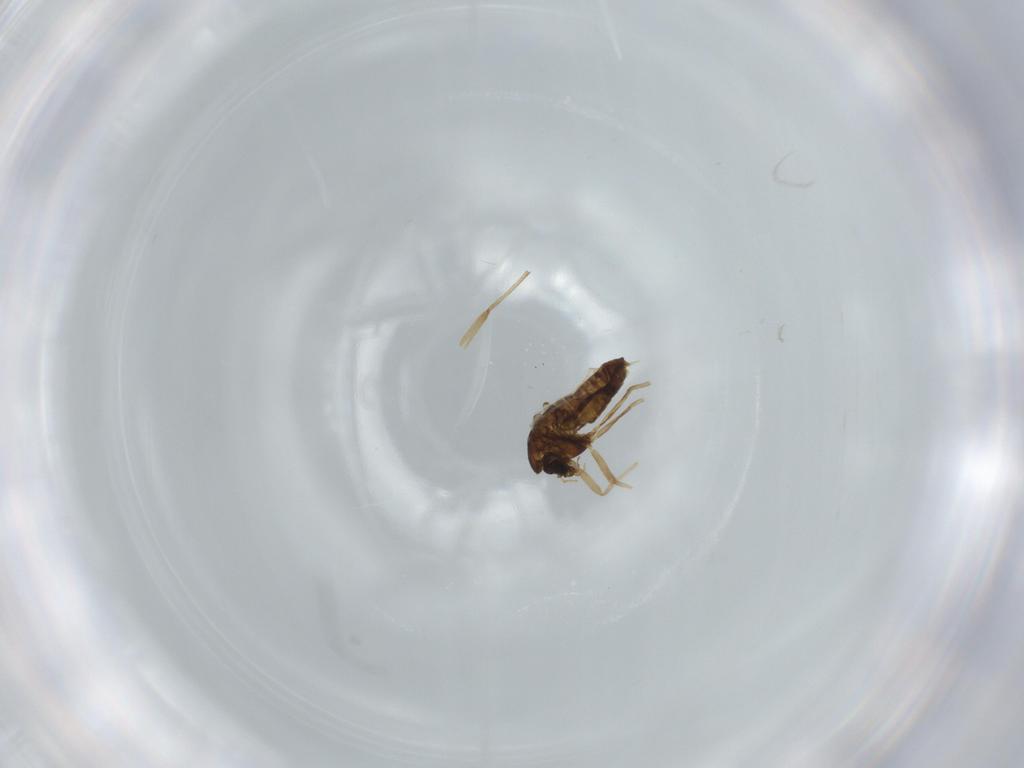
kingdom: Animalia
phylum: Arthropoda
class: Insecta
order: Diptera
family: Chironomidae
